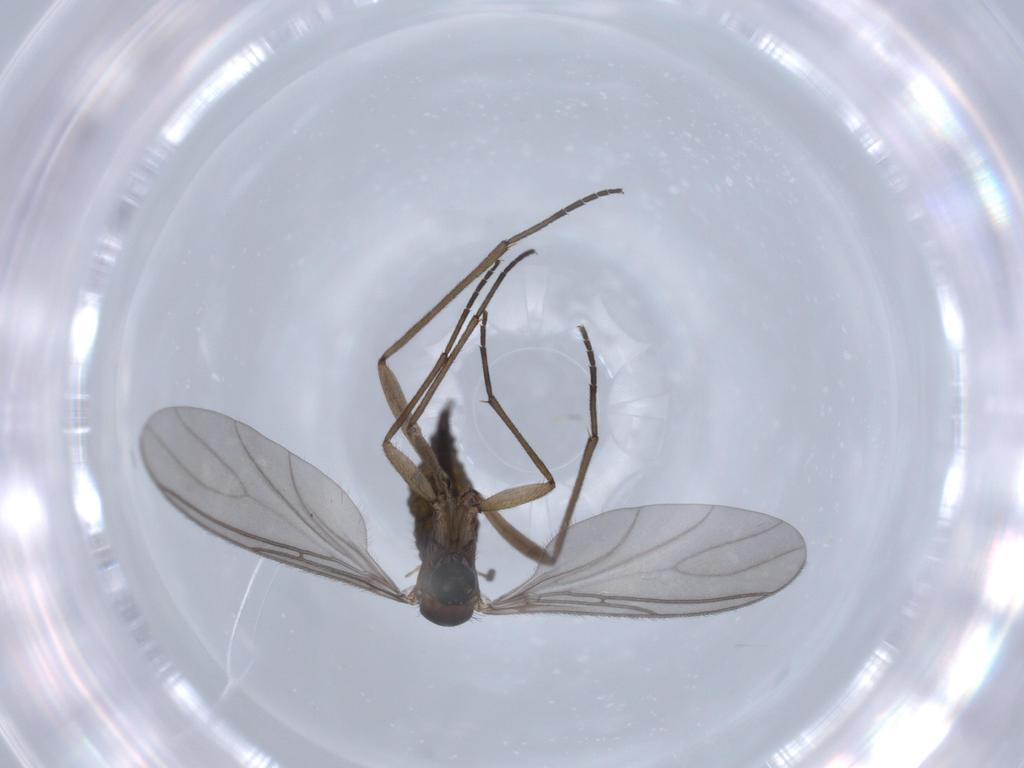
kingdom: Animalia
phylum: Arthropoda
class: Insecta
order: Diptera
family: Sciaridae
